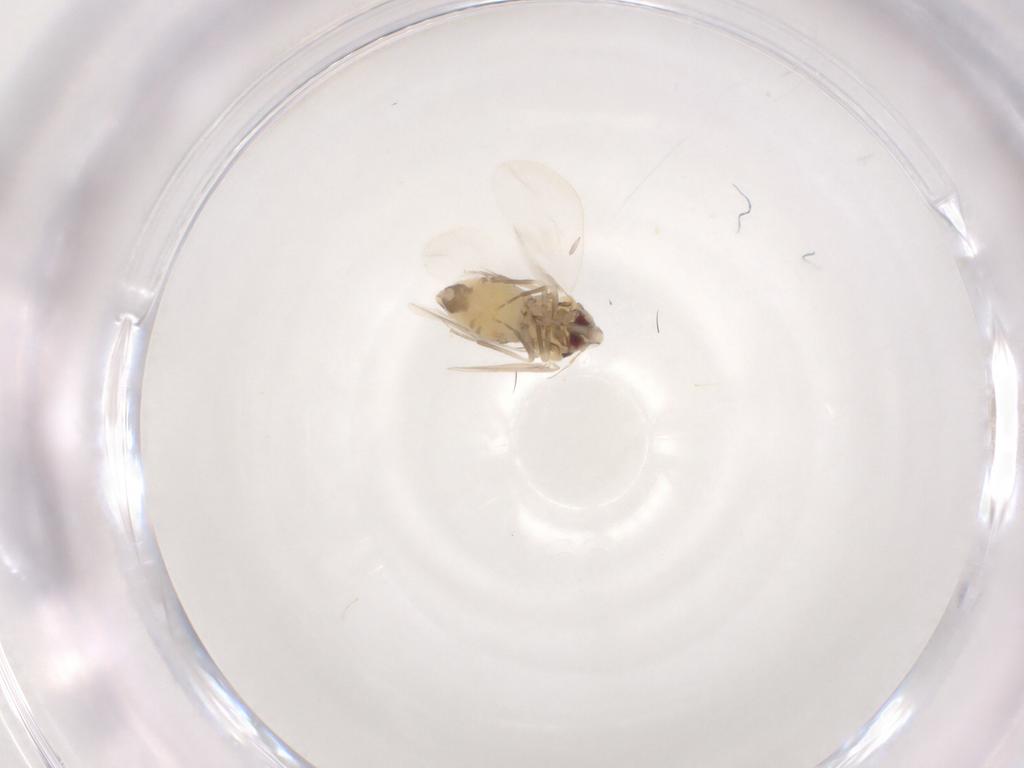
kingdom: Animalia
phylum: Arthropoda
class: Insecta
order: Hemiptera
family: Aleyrodidae
